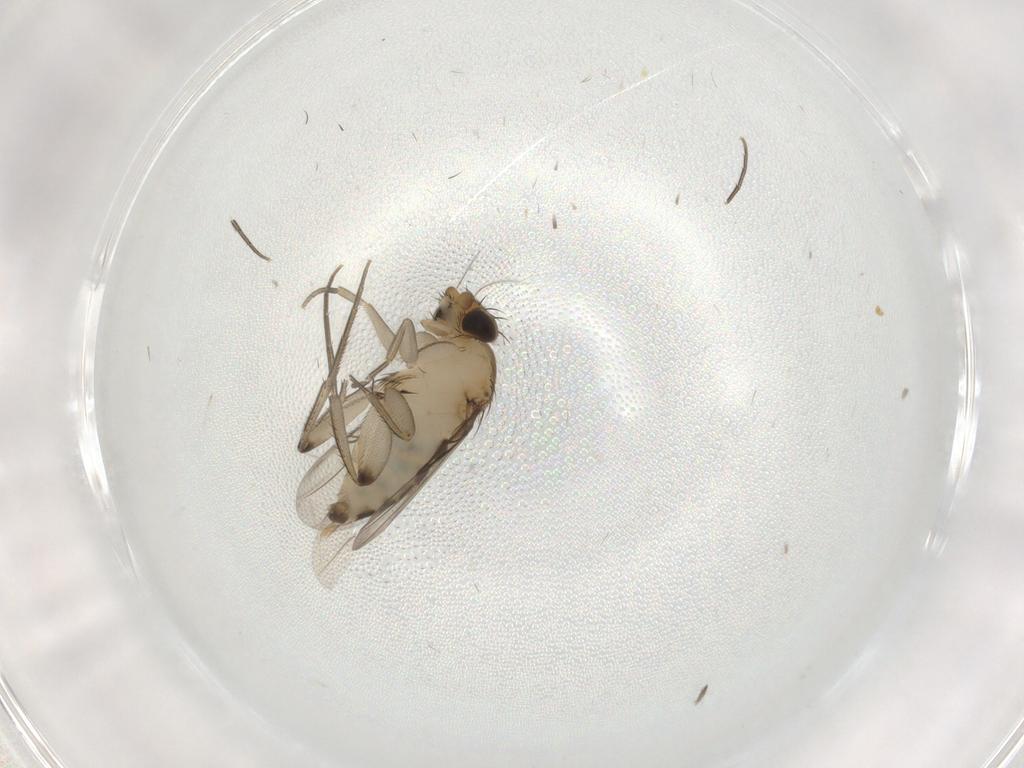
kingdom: Animalia
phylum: Arthropoda
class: Insecta
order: Diptera
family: Phoridae
